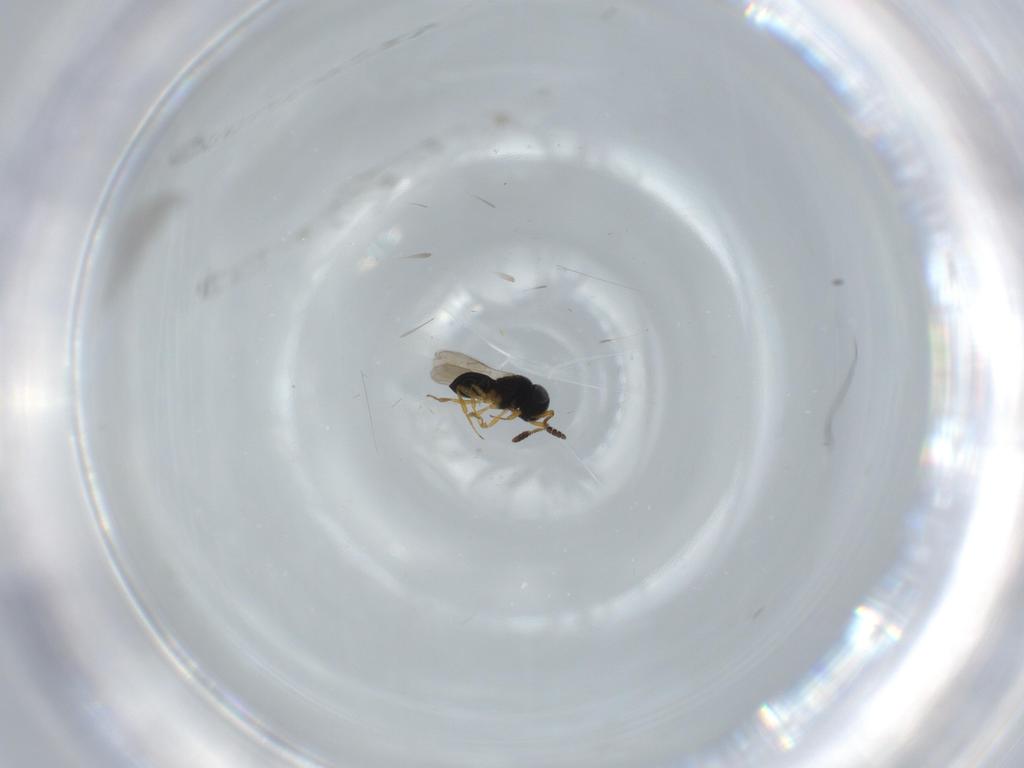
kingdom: Animalia
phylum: Arthropoda
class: Insecta
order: Hymenoptera
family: Scelionidae
